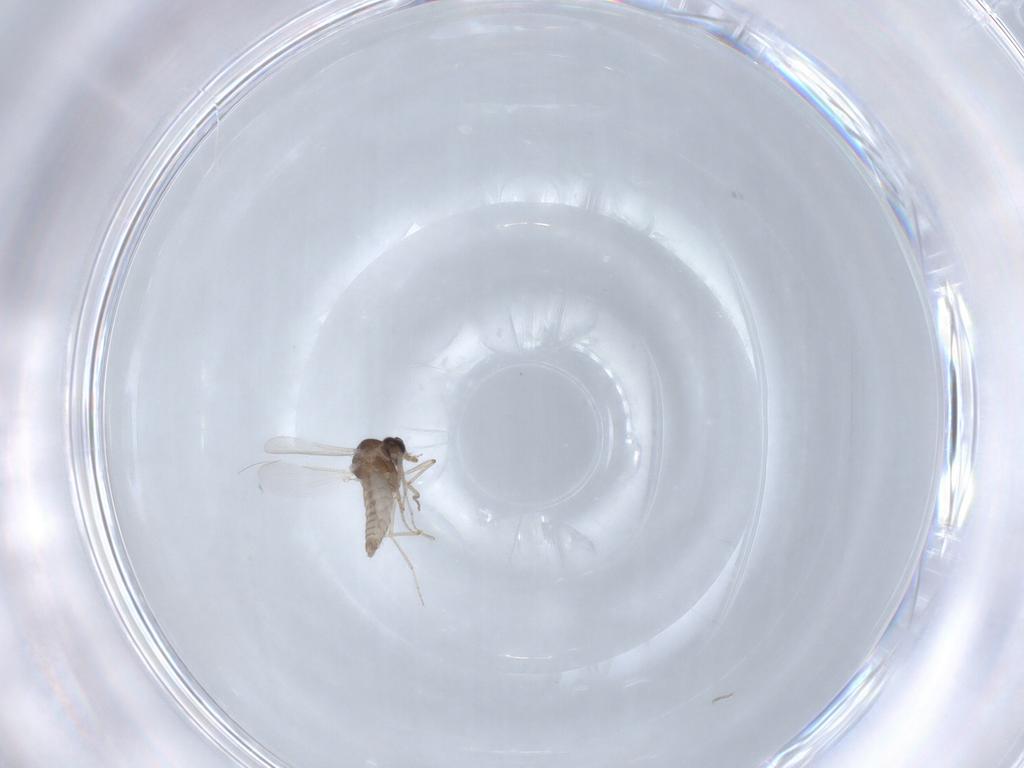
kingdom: Animalia
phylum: Arthropoda
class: Insecta
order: Diptera
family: Ceratopogonidae
